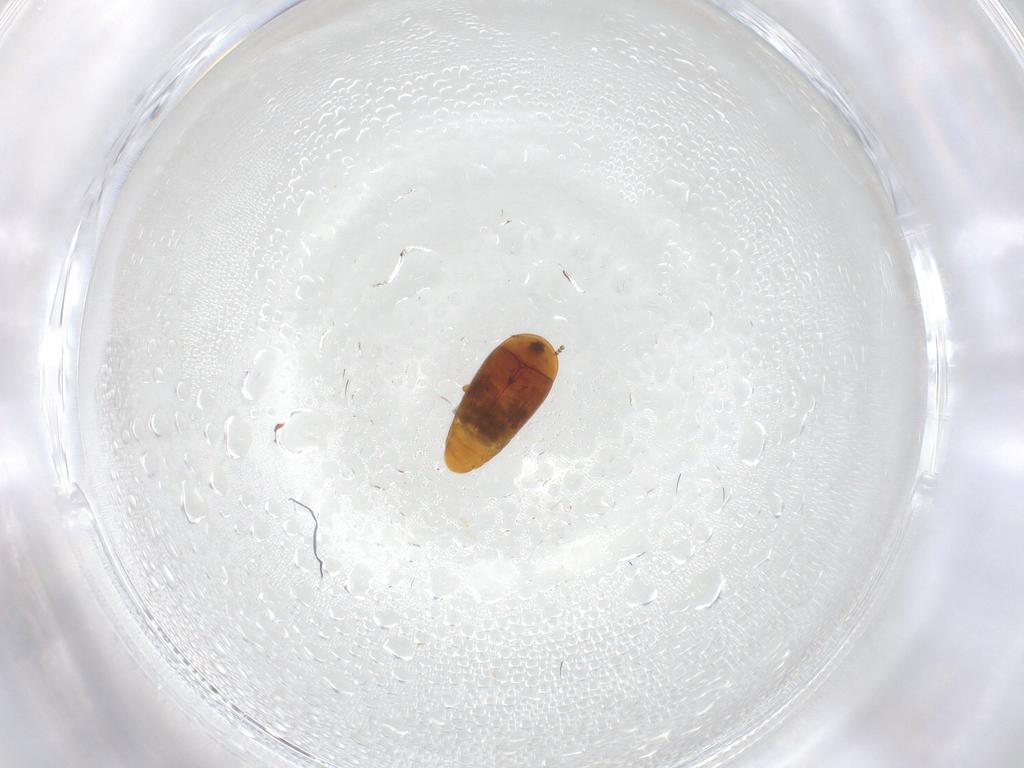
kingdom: Animalia
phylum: Arthropoda
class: Insecta
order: Coleoptera
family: Corylophidae
